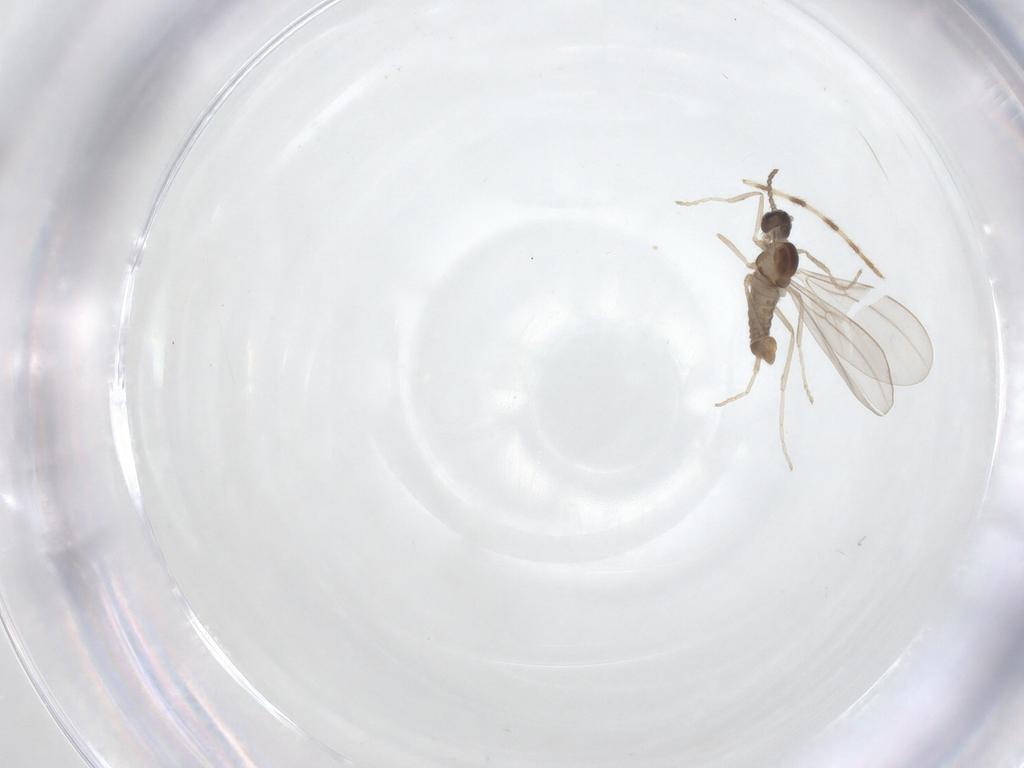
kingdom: Animalia
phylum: Arthropoda
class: Insecta
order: Diptera
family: Cecidomyiidae
